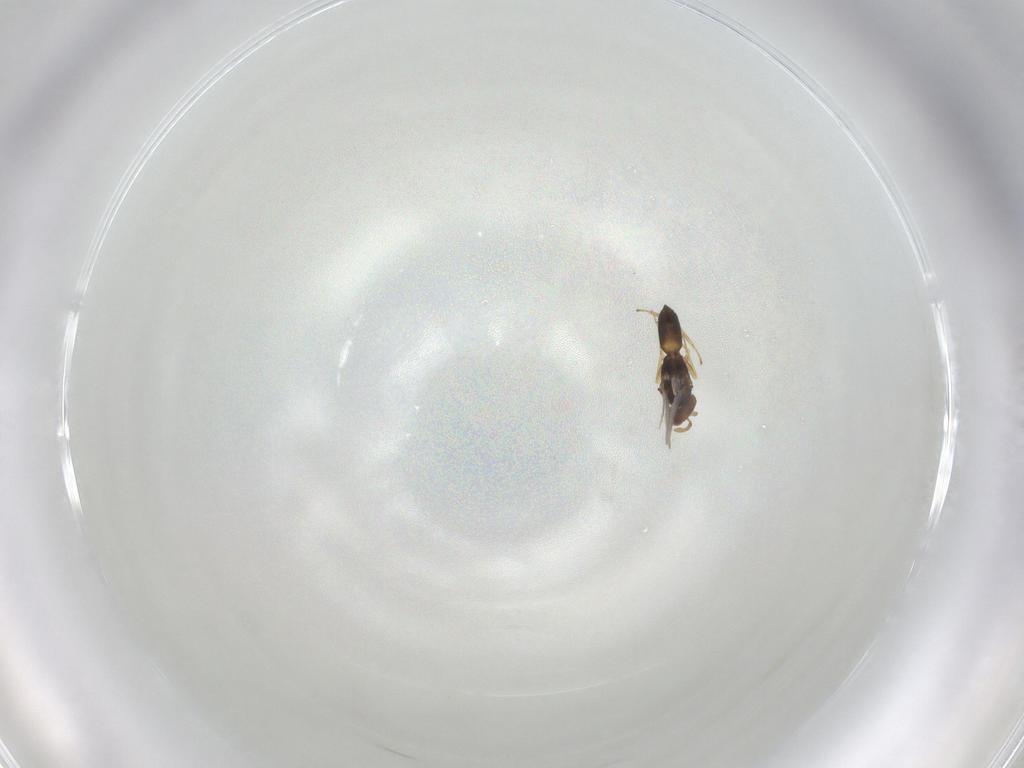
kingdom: Animalia
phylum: Arthropoda
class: Insecta
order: Hymenoptera
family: Eulophidae
